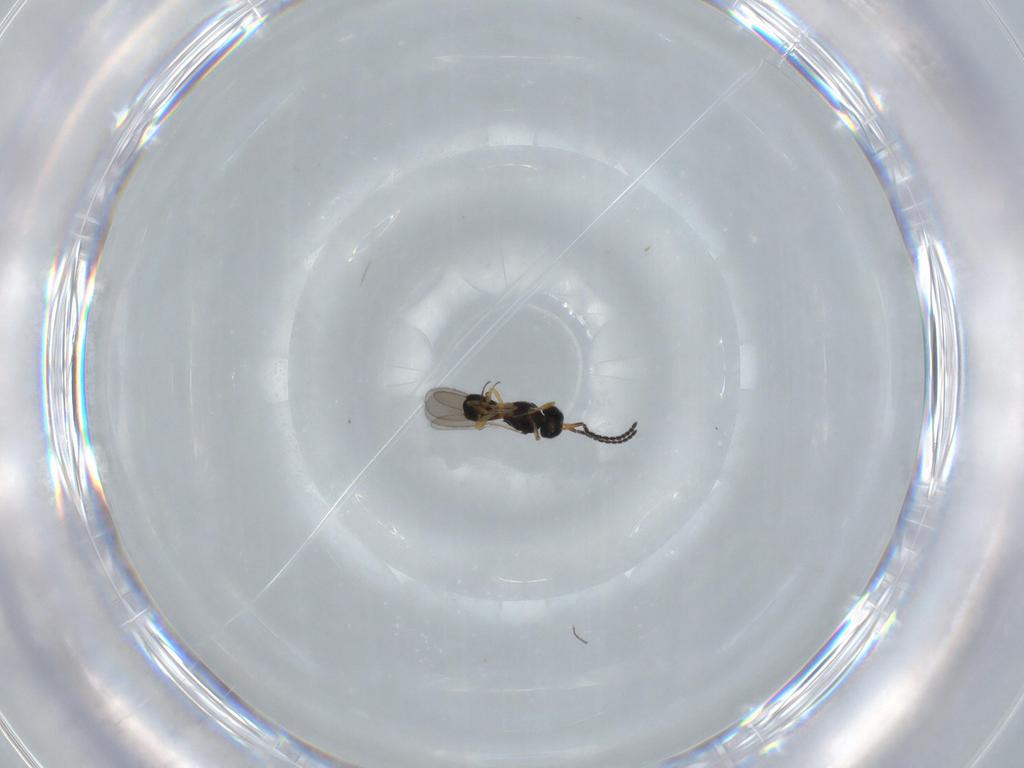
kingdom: Animalia
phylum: Arthropoda
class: Insecta
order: Hymenoptera
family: Scelionidae
